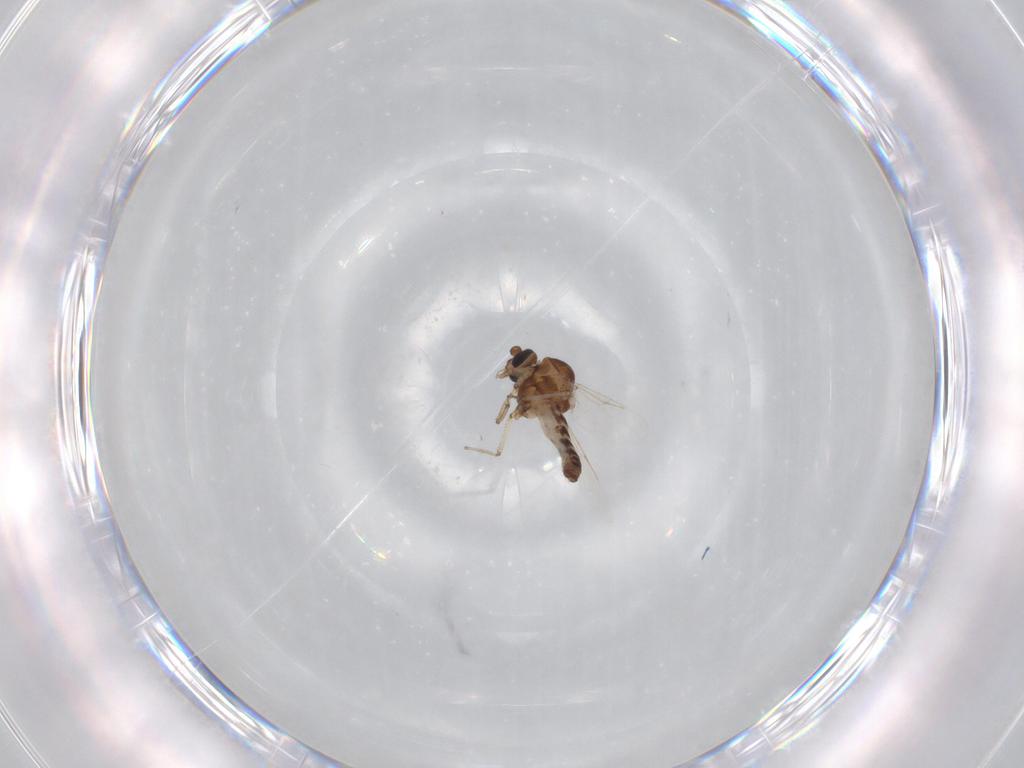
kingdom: Animalia
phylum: Arthropoda
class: Insecta
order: Diptera
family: Ceratopogonidae
